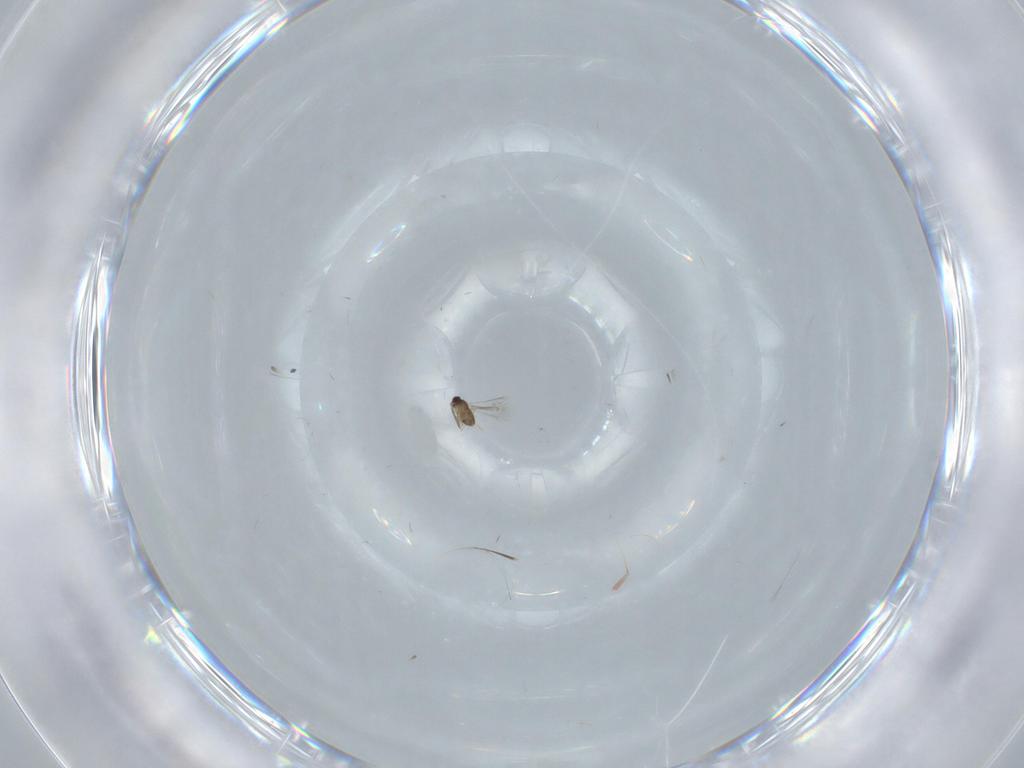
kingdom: Animalia
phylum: Arthropoda
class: Insecta
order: Hymenoptera
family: Mymaridae
